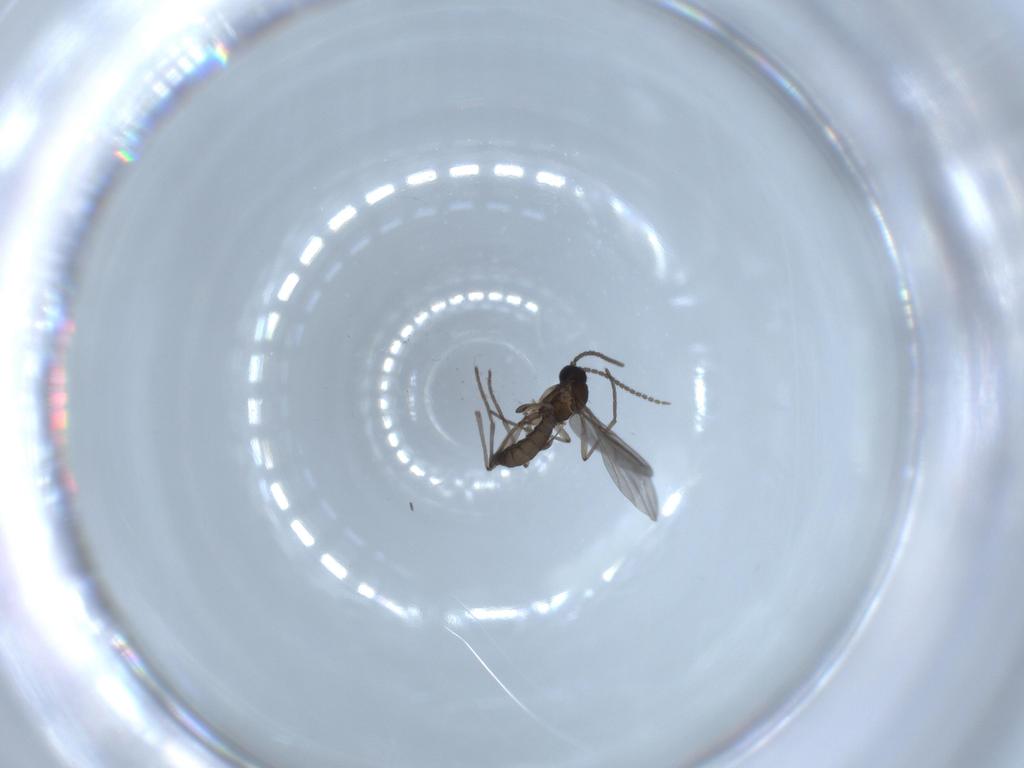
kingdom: Animalia
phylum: Arthropoda
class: Insecta
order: Diptera
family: Sciaridae
